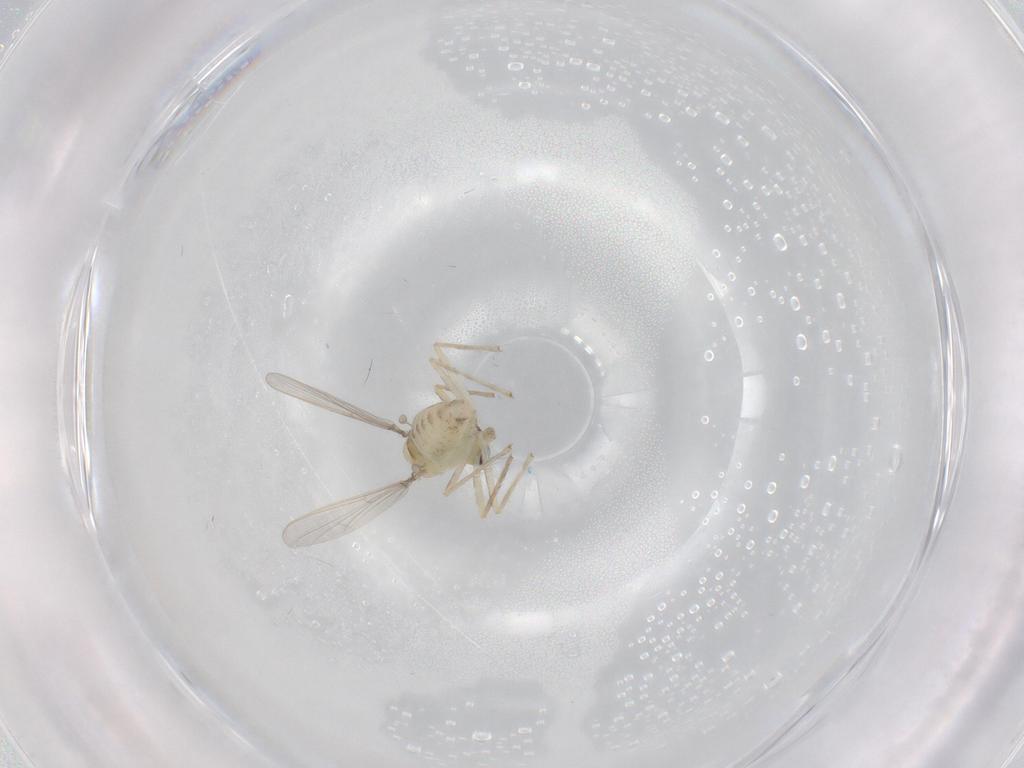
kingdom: Animalia
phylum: Arthropoda
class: Insecta
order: Diptera
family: Chironomidae
